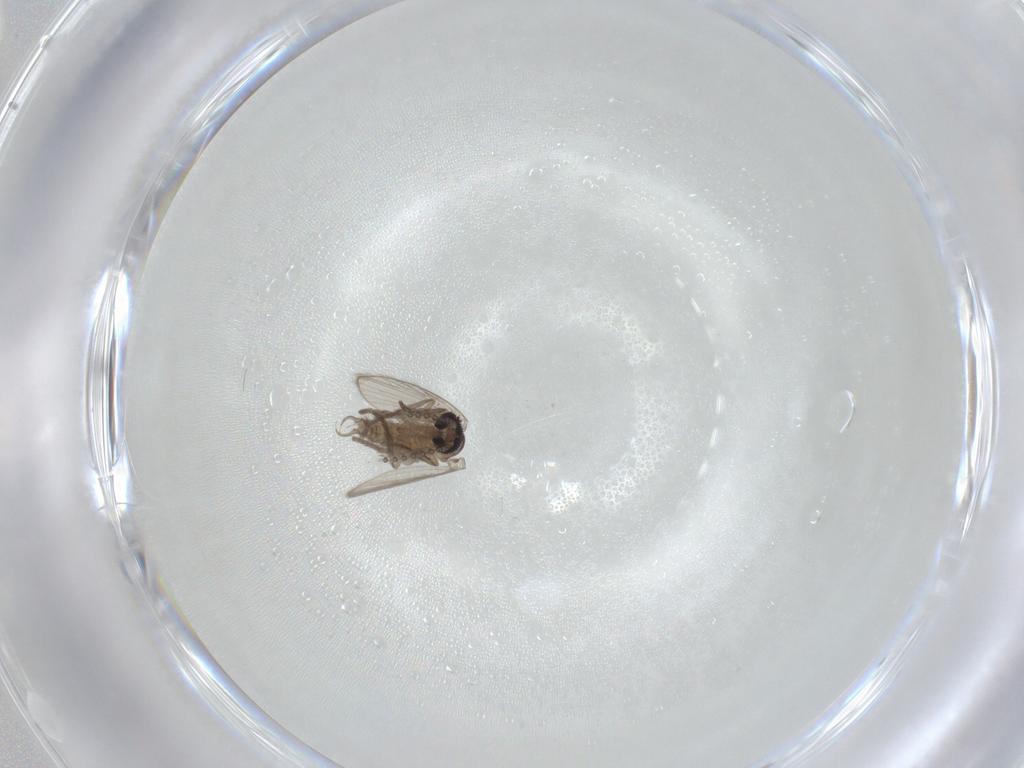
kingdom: Animalia
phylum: Arthropoda
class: Insecta
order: Diptera
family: Psychodidae
